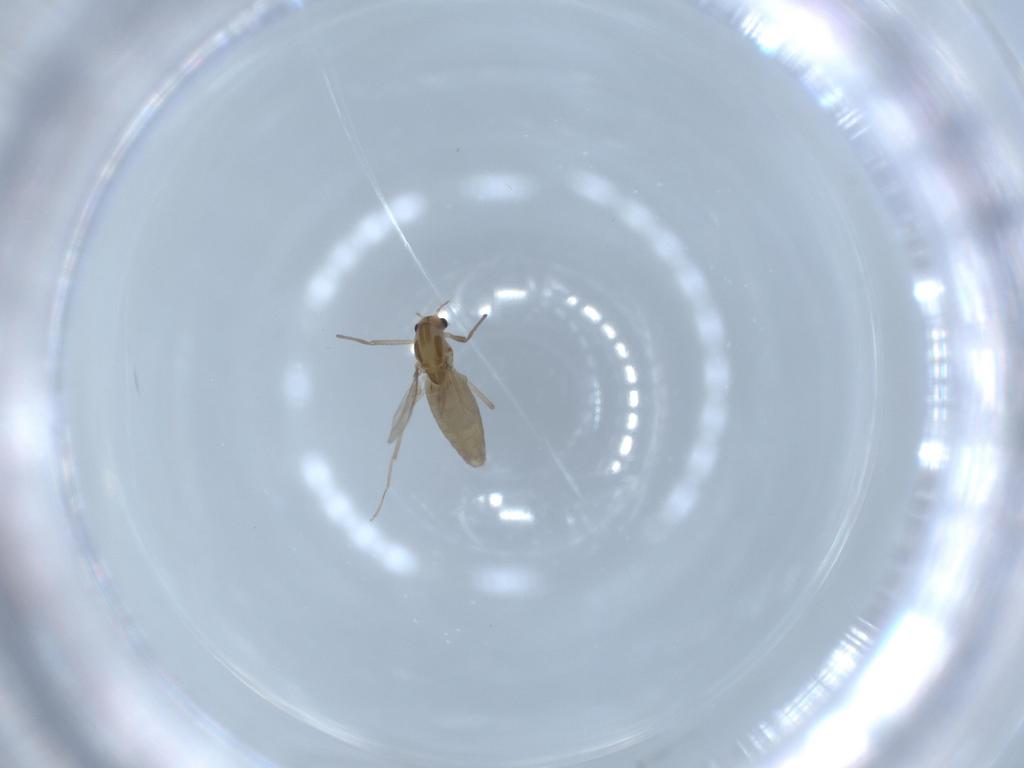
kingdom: Animalia
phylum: Arthropoda
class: Insecta
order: Diptera
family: Chironomidae
